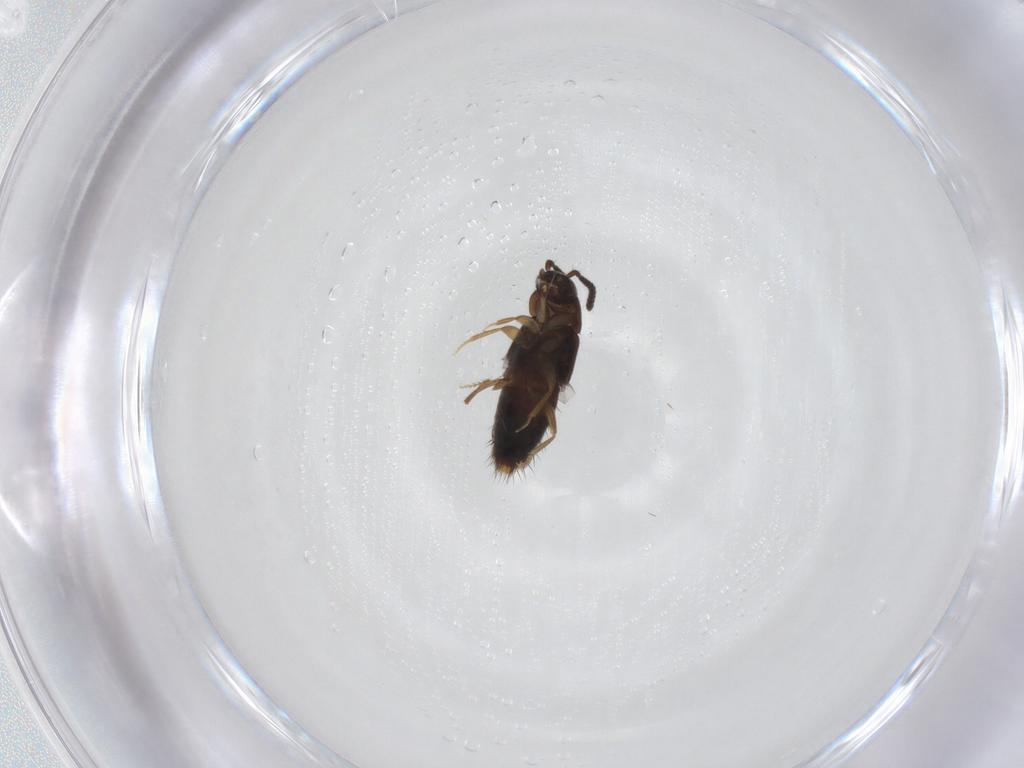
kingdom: Animalia
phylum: Arthropoda
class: Insecta
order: Coleoptera
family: Staphylinidae
